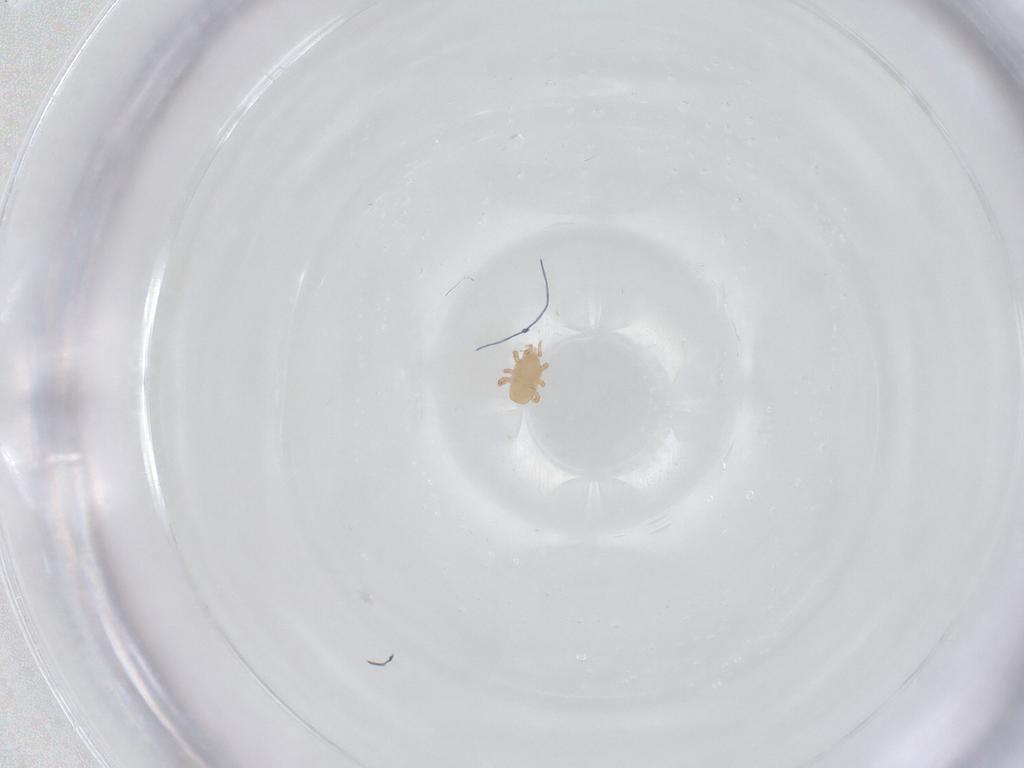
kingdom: Animalia
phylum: Arthropoda
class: Arachnida
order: Mesostigmata
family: Halolaelapidae
